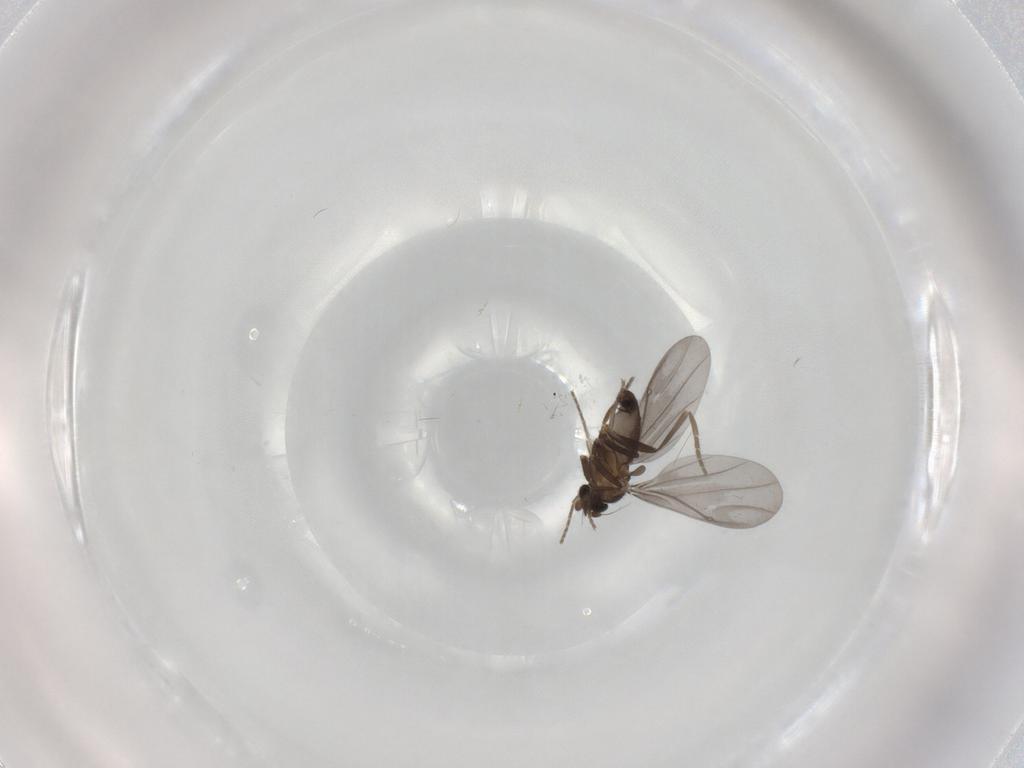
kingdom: Animalia
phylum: Arthropoda
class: Insecta
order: Diptera
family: Phoridae
